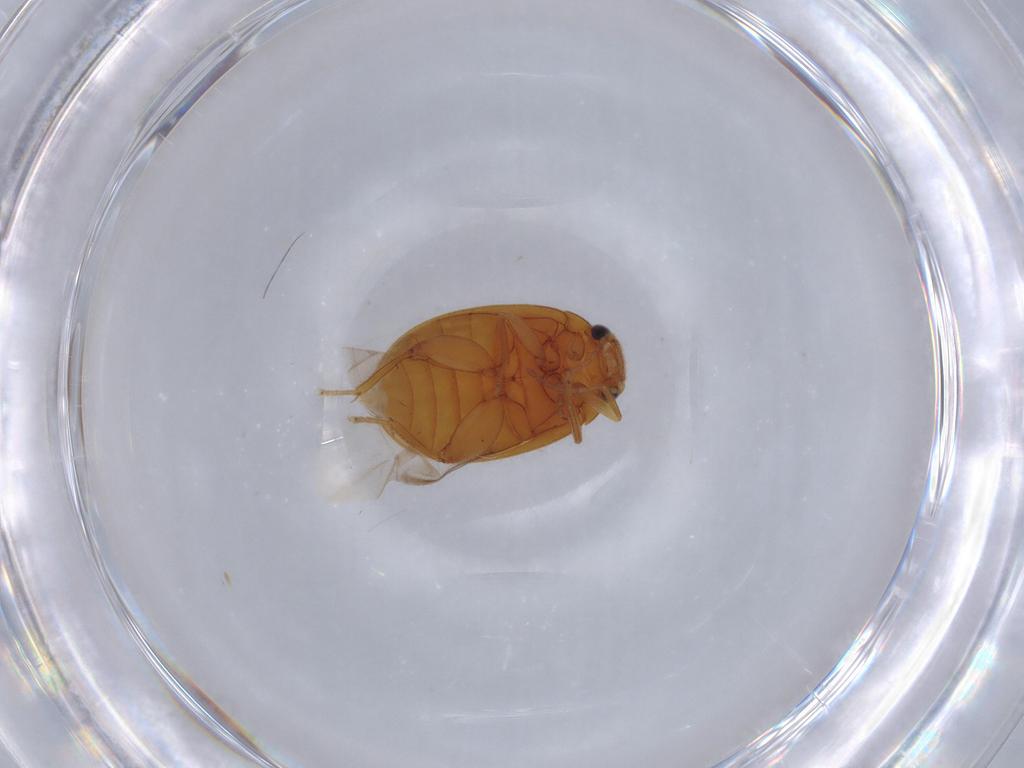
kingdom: Animalia
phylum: Arthropoda
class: Insecta
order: Coleoptera
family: Scirtidae
